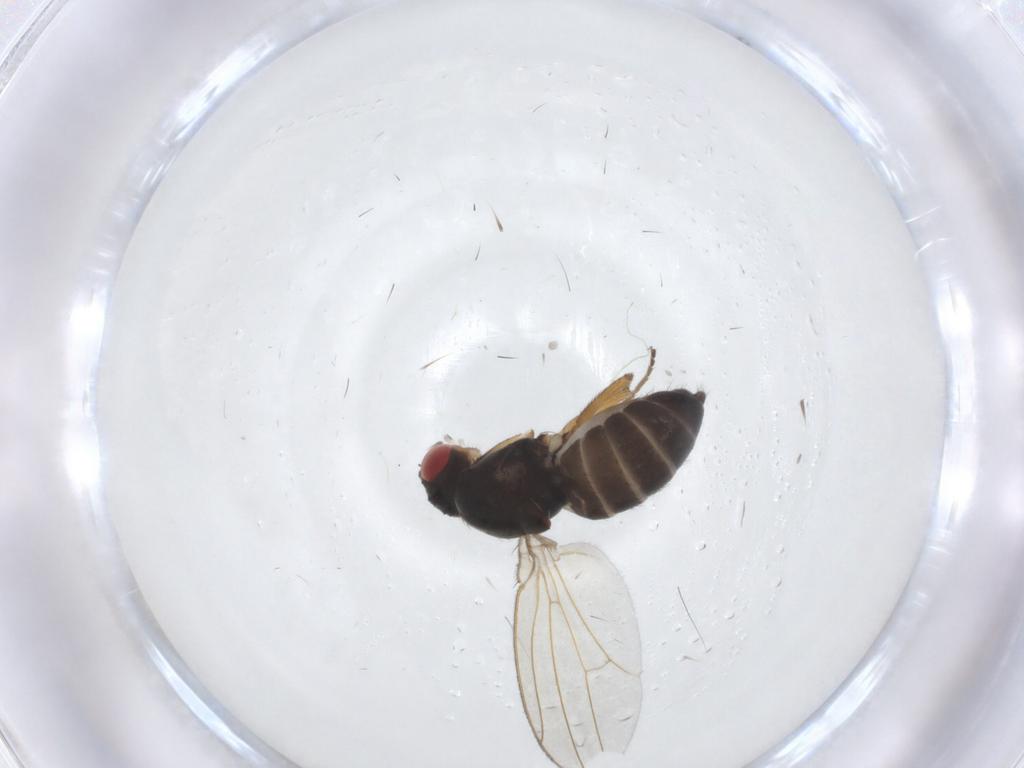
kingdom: Animalia
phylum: Arthropoda
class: Insecta
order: Diptera
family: Drosophilidae
